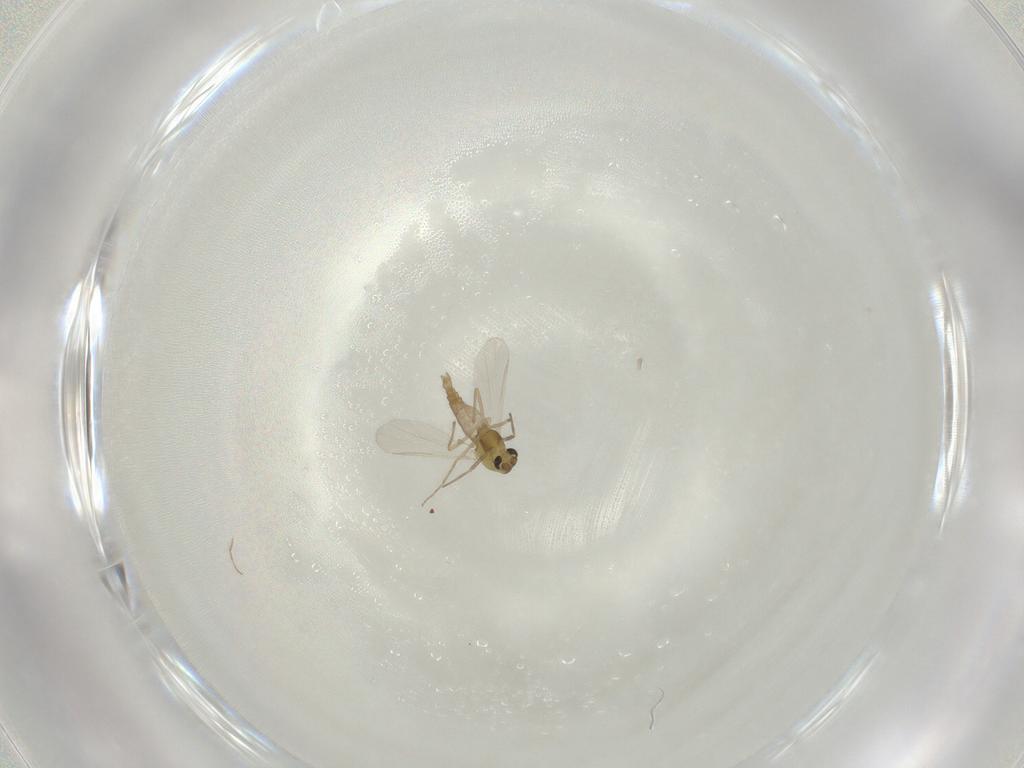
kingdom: Animalia
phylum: Arthropoda
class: Insecta
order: Diptera
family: Chironomidae
